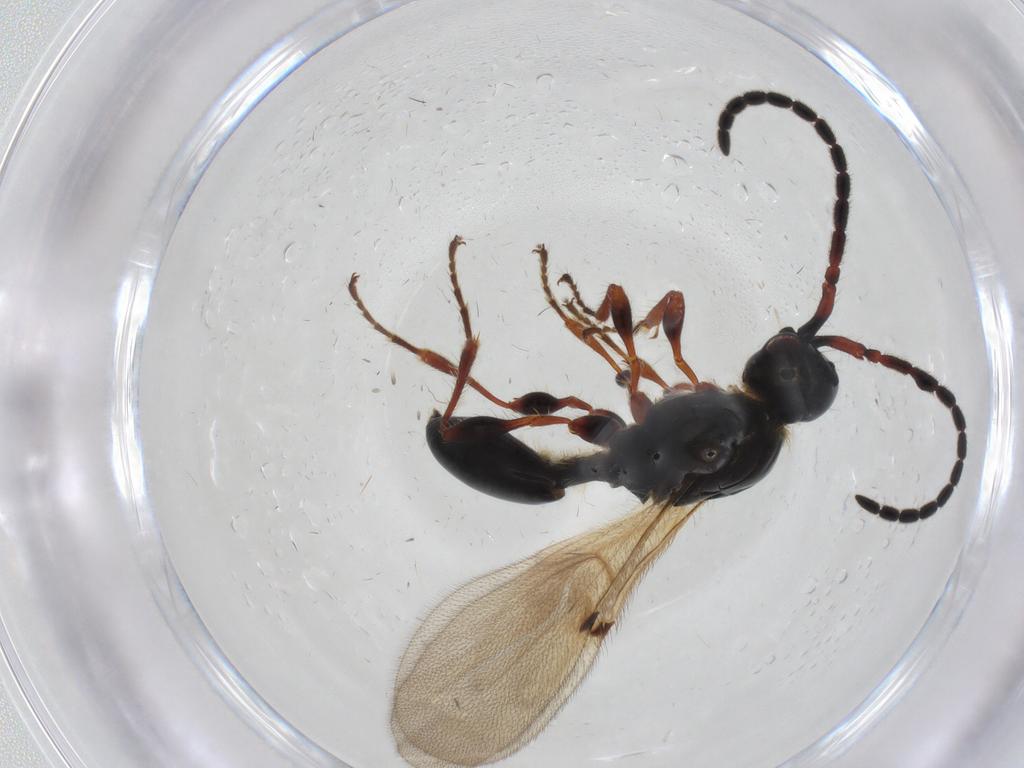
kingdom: Animalia
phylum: Arthropoda
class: Insecta
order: Hymenoptera
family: Diapriidae
